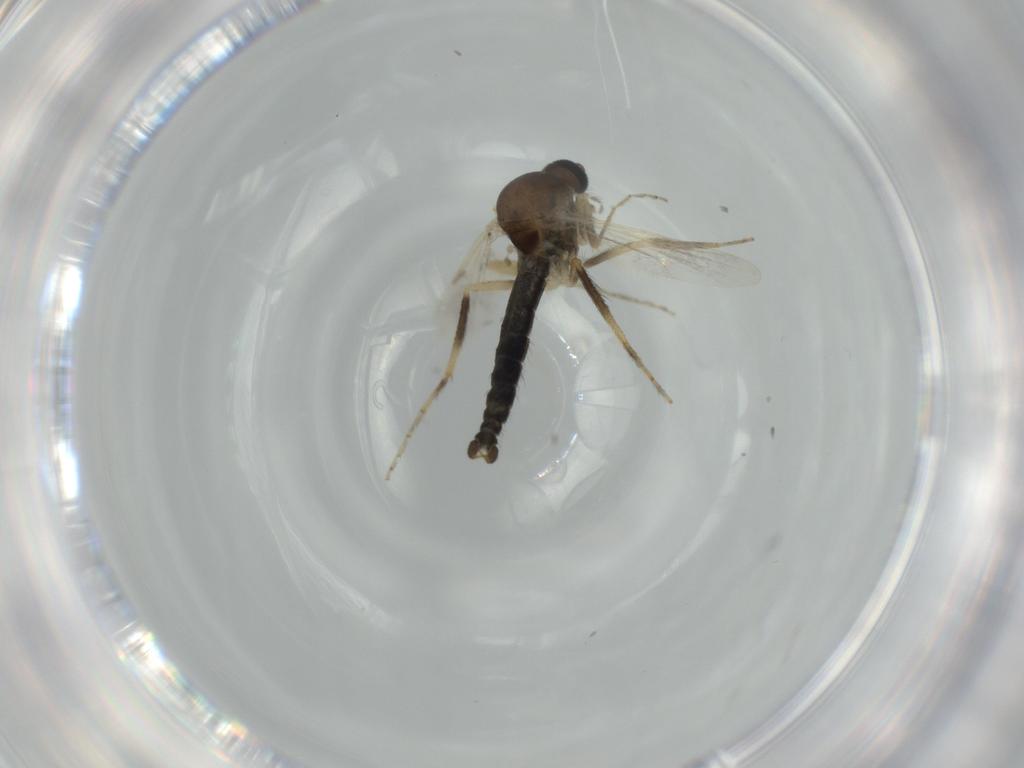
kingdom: Animalia
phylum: Arthropoda
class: Insecta
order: Diptera
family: Ceratopogonidae
